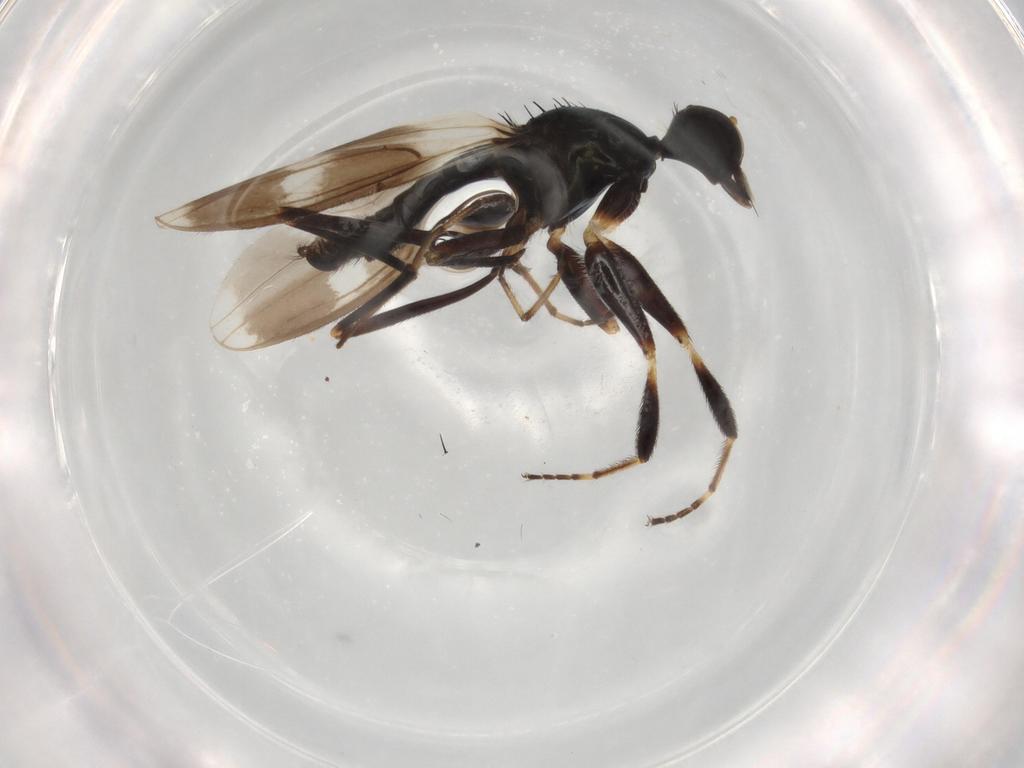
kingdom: Animalia
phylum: Arthropoda
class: Insecta
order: Diptera
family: Hybotidae
